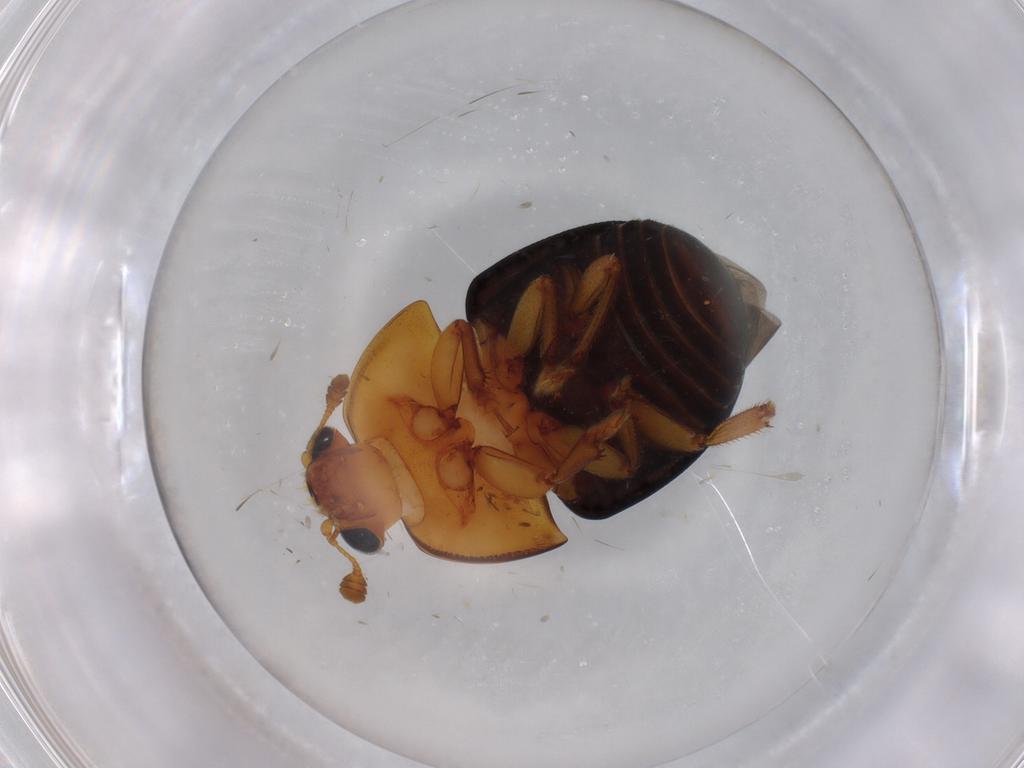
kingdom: Animalia
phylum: Arthropoda
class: Insecta
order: Coleoptera
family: Nitidulidae
